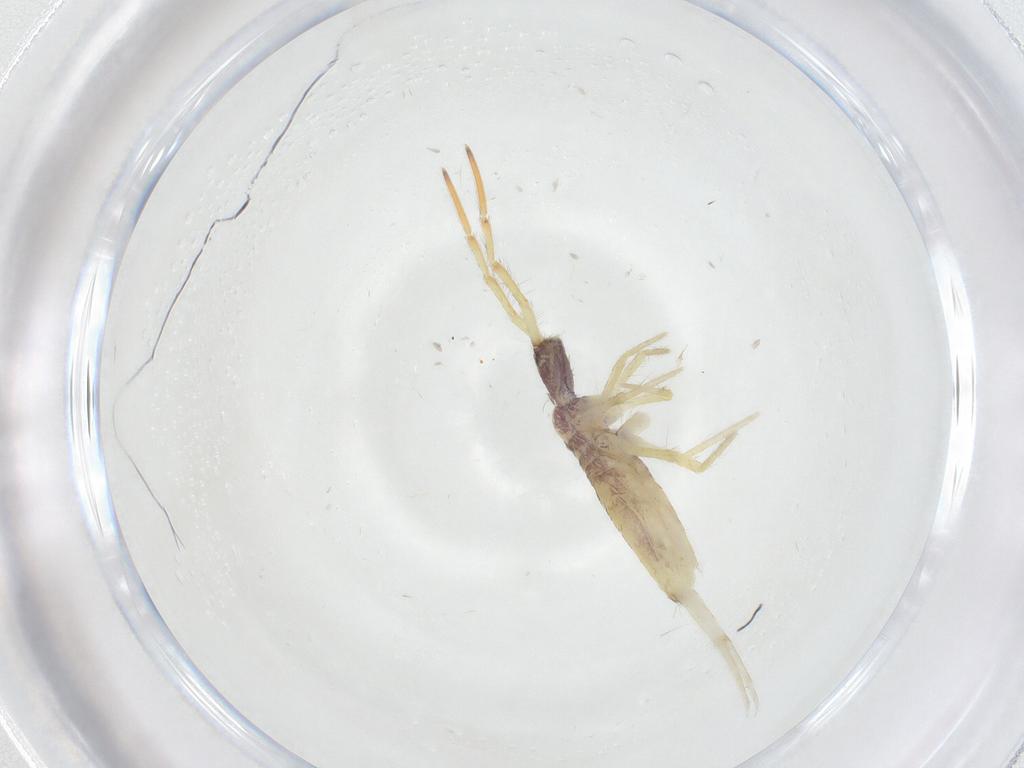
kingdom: Animalia
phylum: Arthropoda
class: Collembola
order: Entomobryomorpha
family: Entomobryidae
